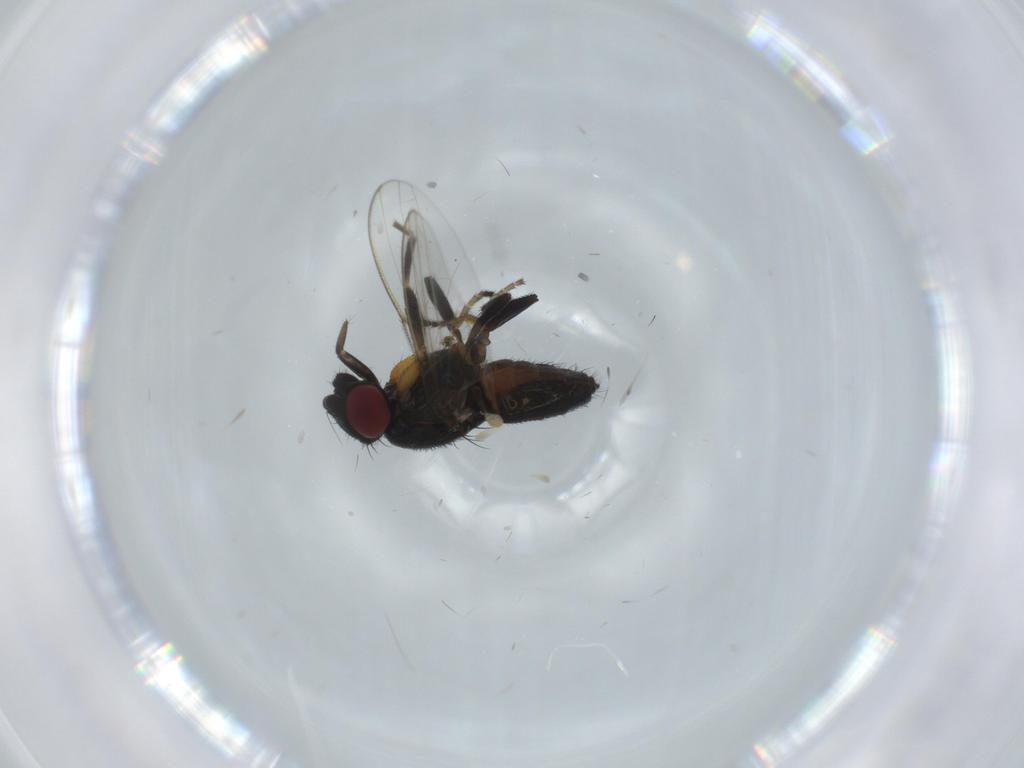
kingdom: Animalia
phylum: Arthropoda
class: Insecta
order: Diptera
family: Milichiidae
